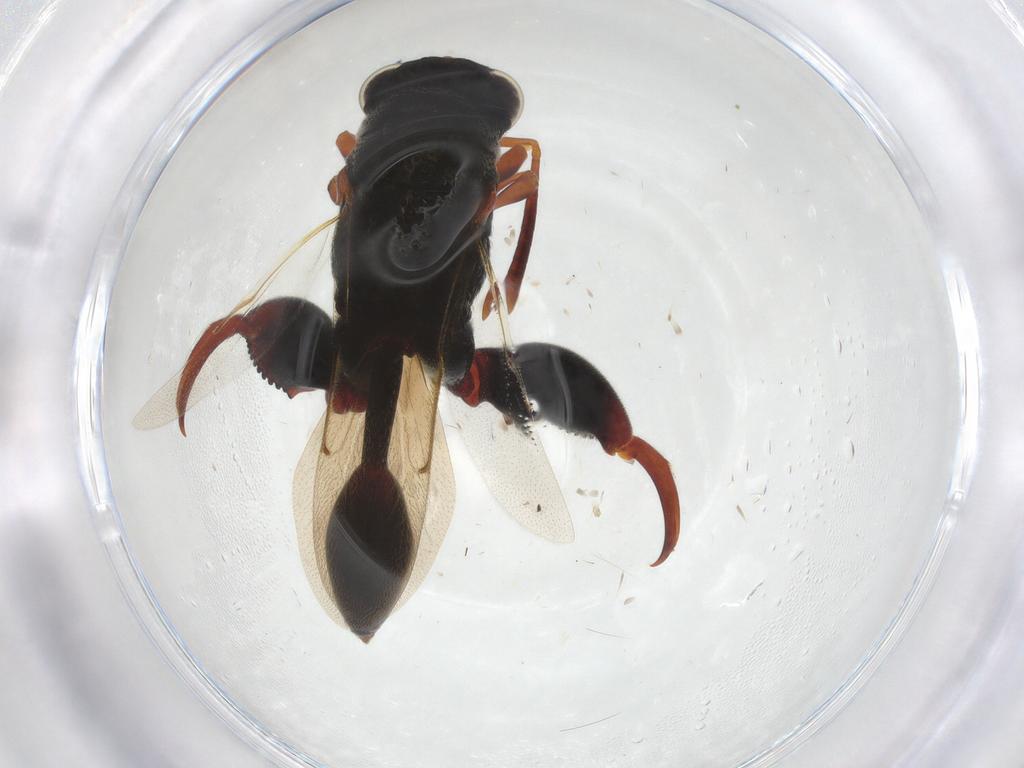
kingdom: Animalia
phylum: Arthropoda
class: Insecta
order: Hymenoptera
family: Chalcididae
